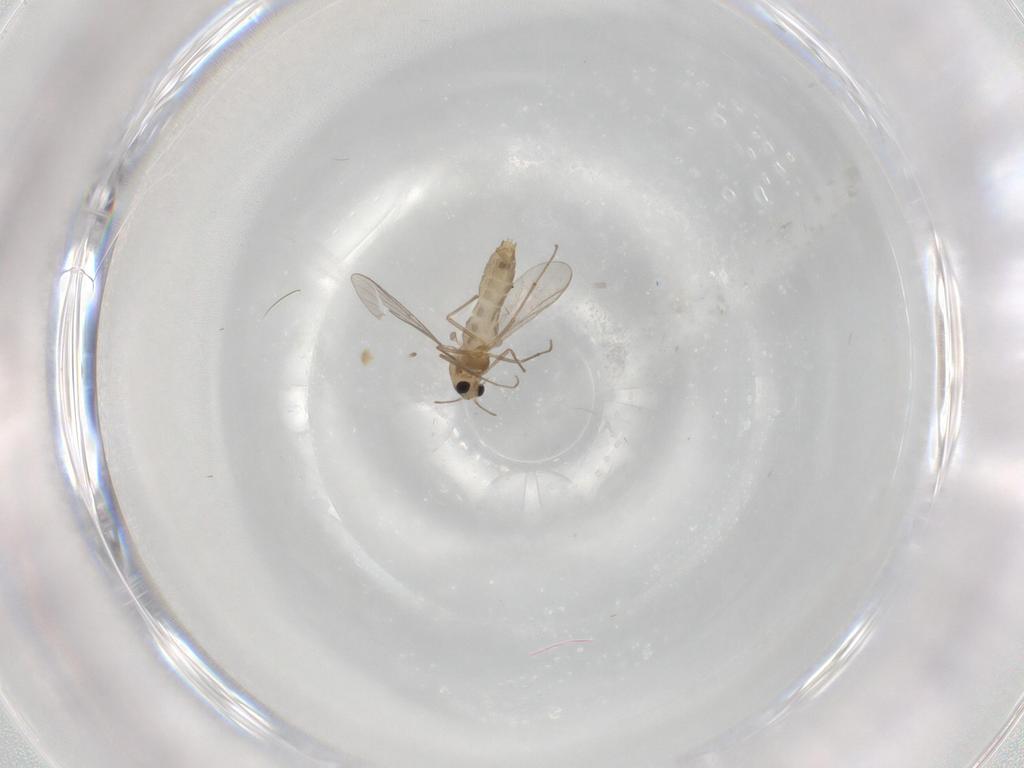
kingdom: Animalia
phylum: Arthropoda
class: Insecta
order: Diptera
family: Chironomidae
